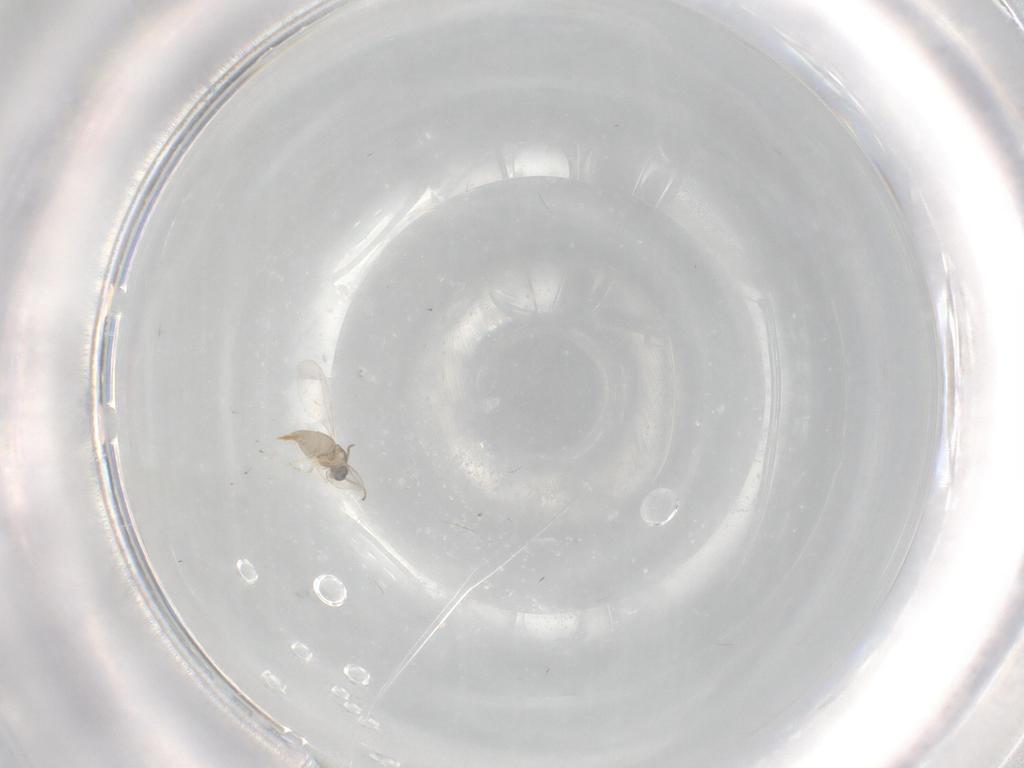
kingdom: Animalia
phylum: Arthropoda
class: Insecta
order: Diptera
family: Cecidomyiidae
